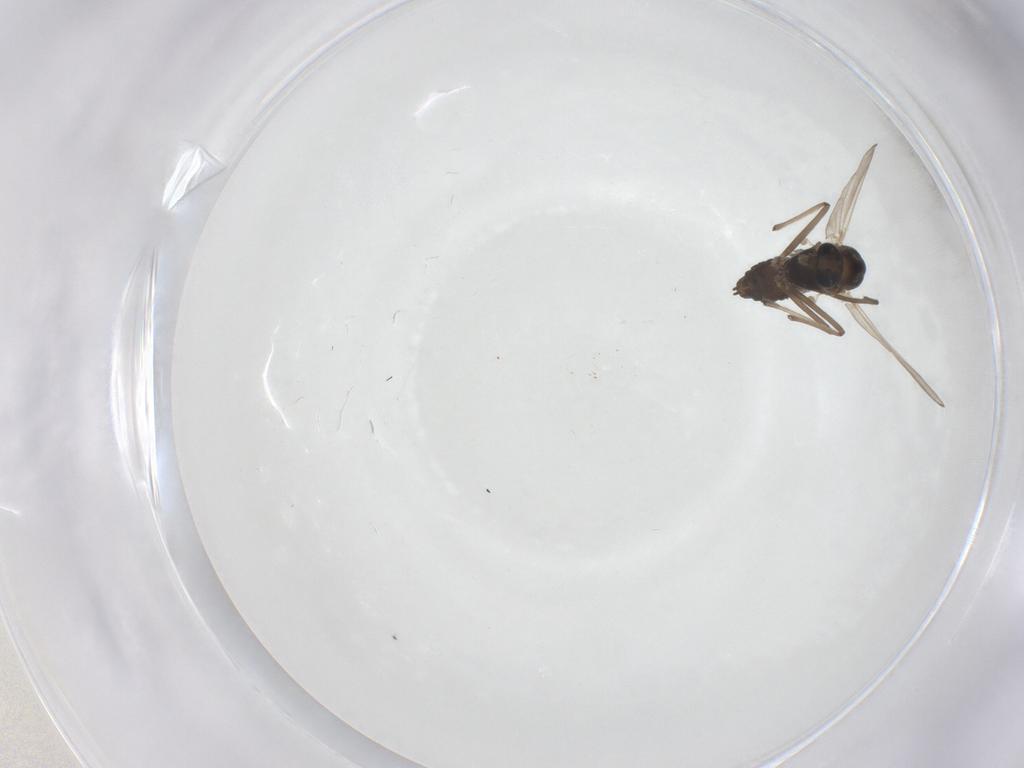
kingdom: Animalia
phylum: Arthropoda
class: Insecta
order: Diptera
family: Chironomidae
